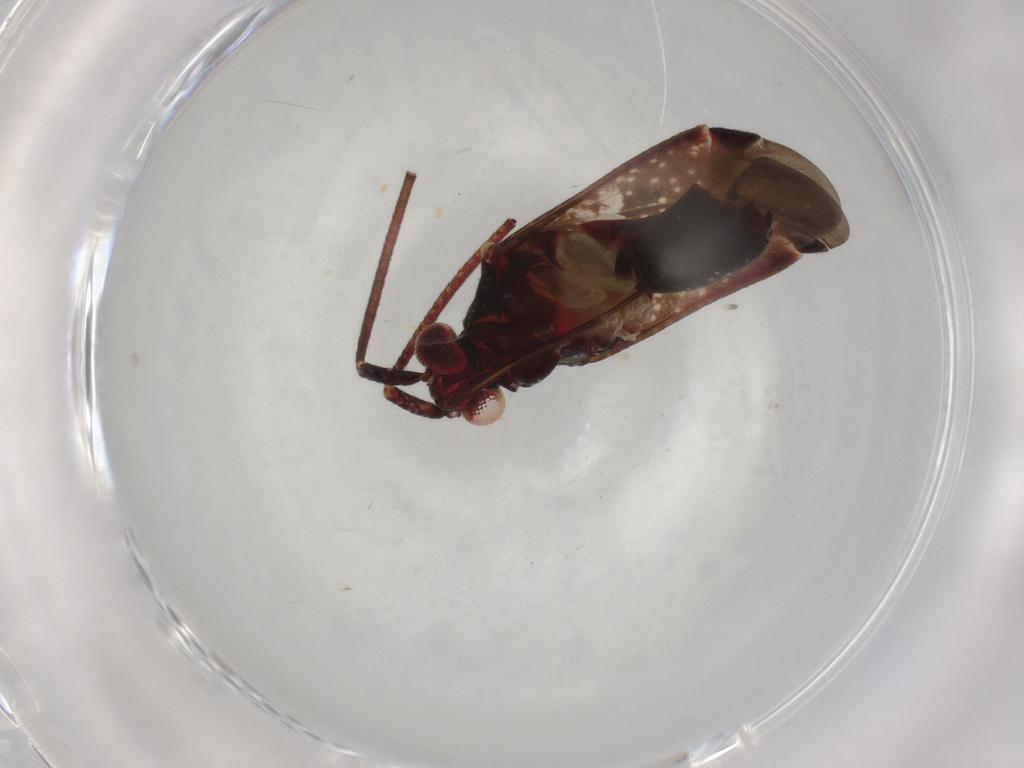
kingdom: Animalia
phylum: Arthropoda
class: Insecta
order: Hemiptera
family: Miridae
